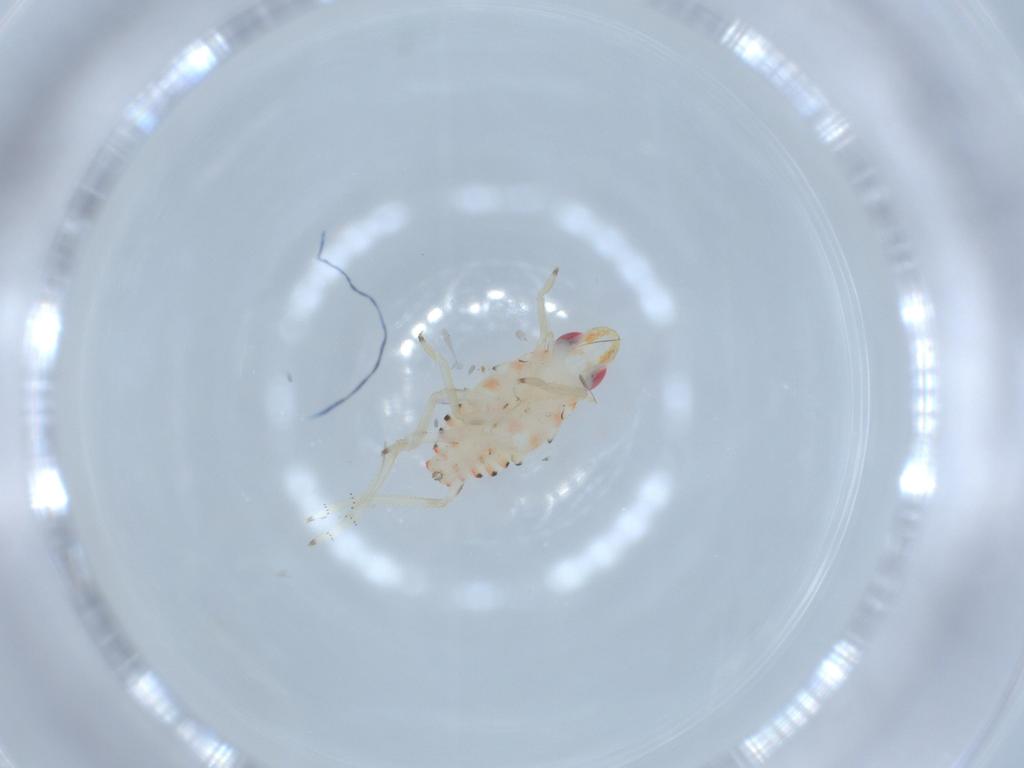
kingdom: Animalia
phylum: Arthropoda
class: Insecta
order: Hemiptera
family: Tropiduchidae
